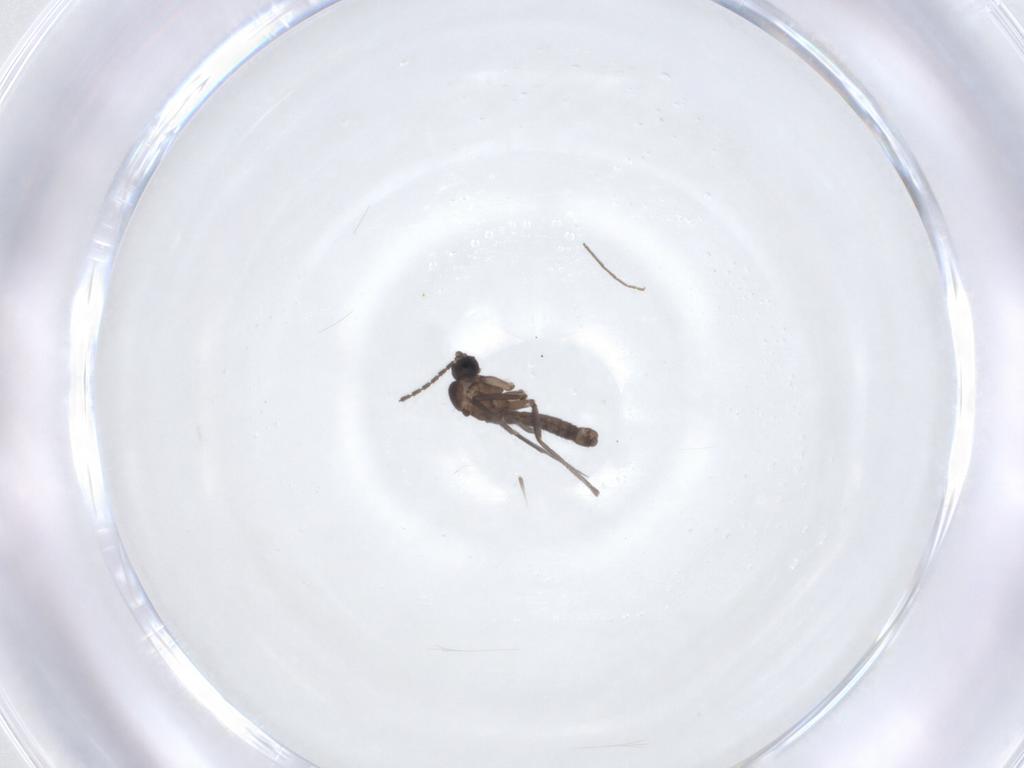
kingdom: Animalia
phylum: Arthropoda
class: Insecta
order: Diptera
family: Sciaridae
